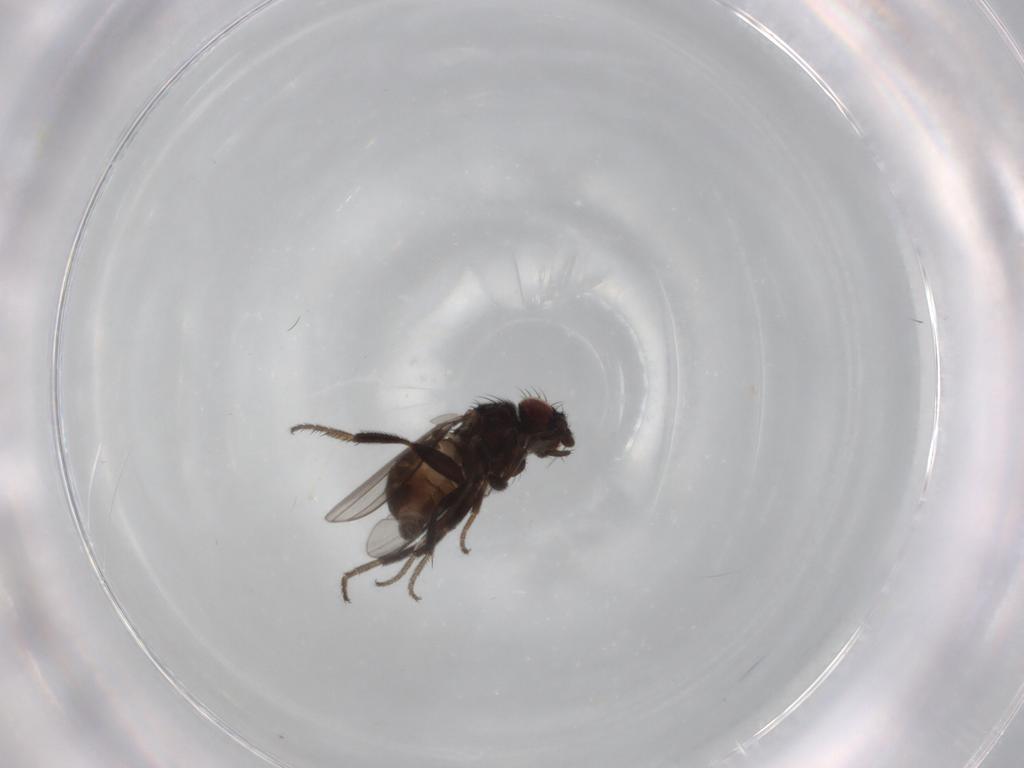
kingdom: Animalia
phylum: Arthropoda
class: Insecta
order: Diptera
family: Milichiidae
